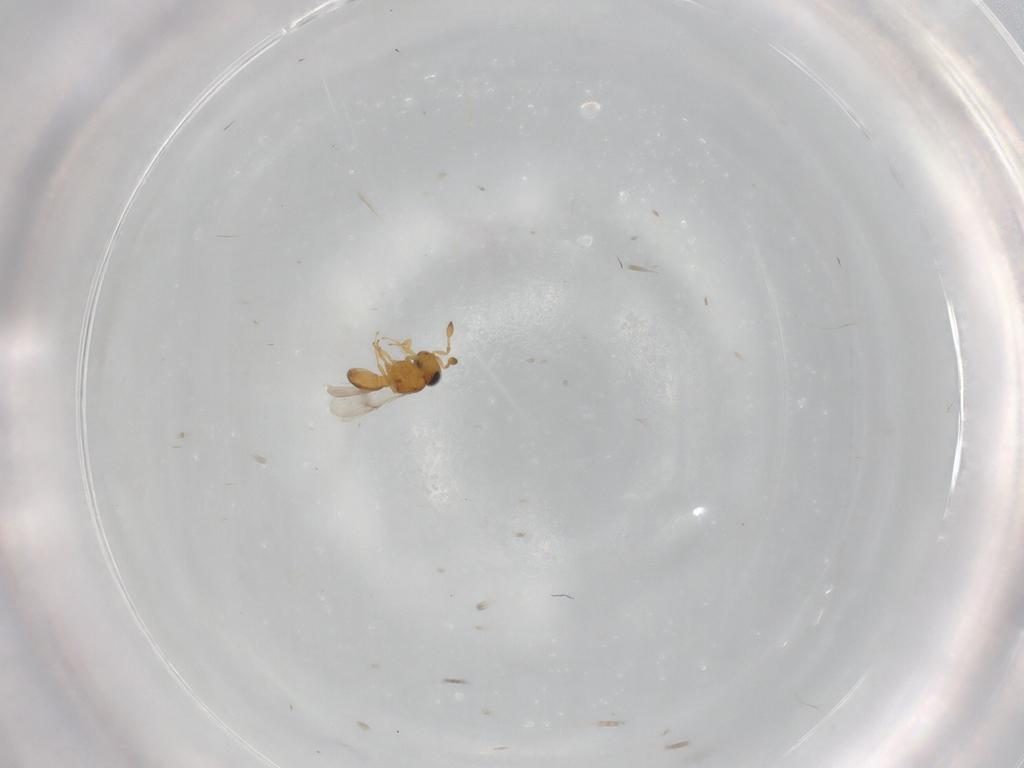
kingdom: Animalia
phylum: Arthropoda
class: Insecta
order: Hymenoptera
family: Scelionidae
